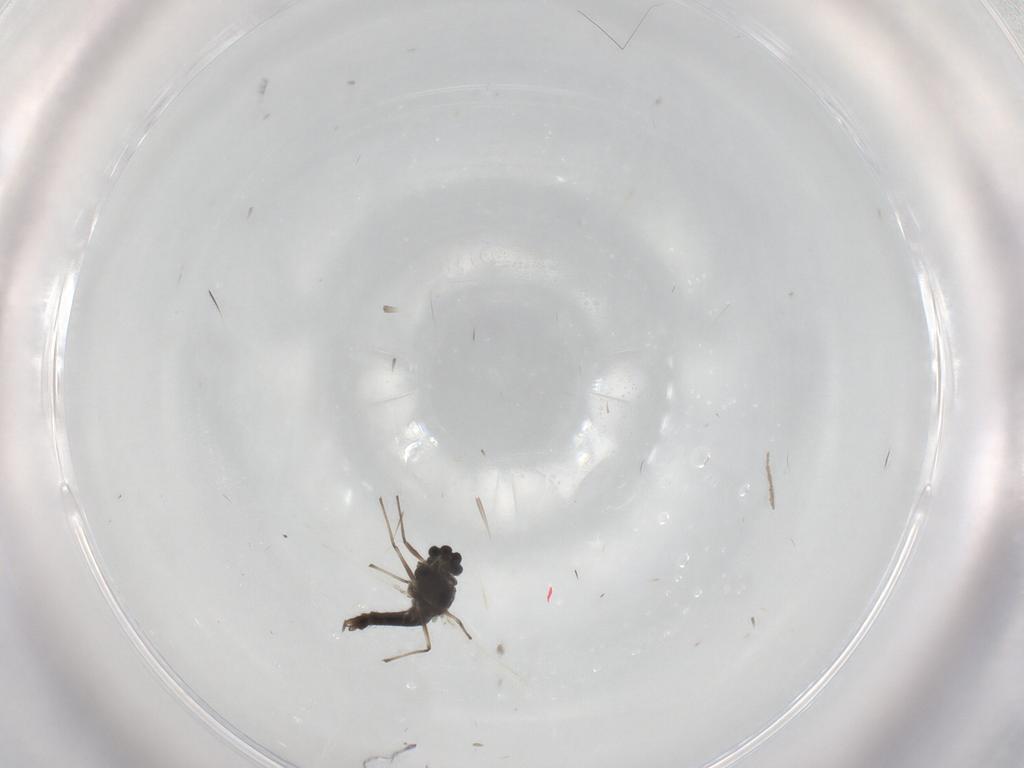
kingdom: Animalia
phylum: Arthropoda
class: Insecta
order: Diptera
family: Chironomidae
